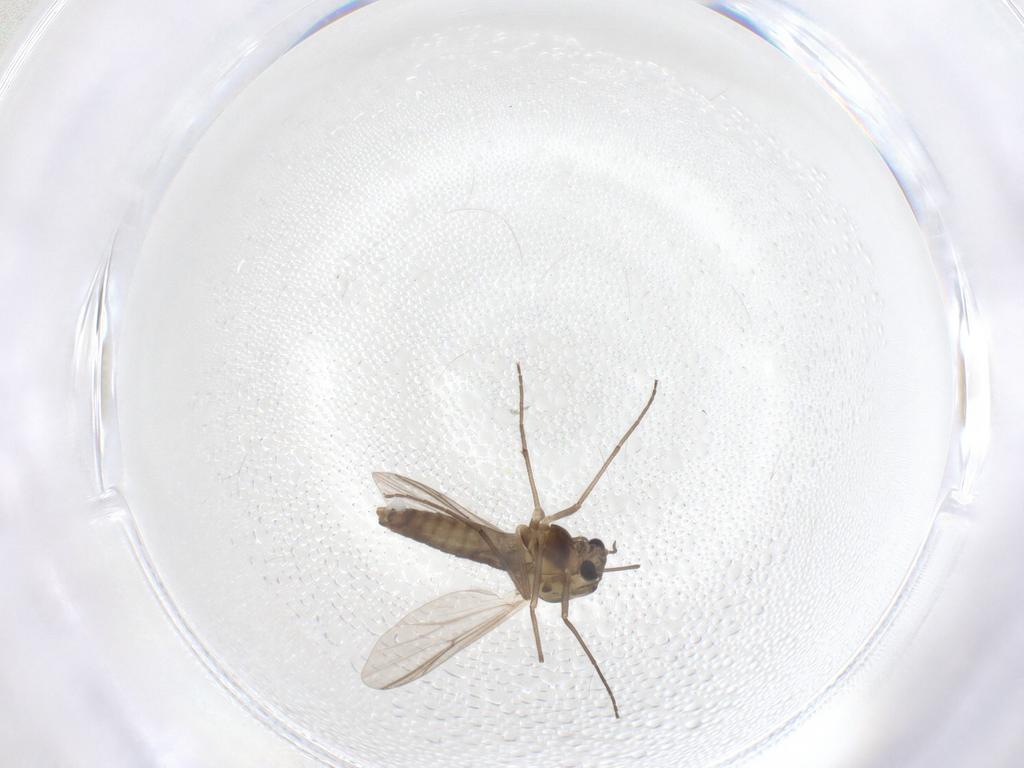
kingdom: Animalia
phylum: Arthropoda
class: Insecta
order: Diptera
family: Chironomidae
